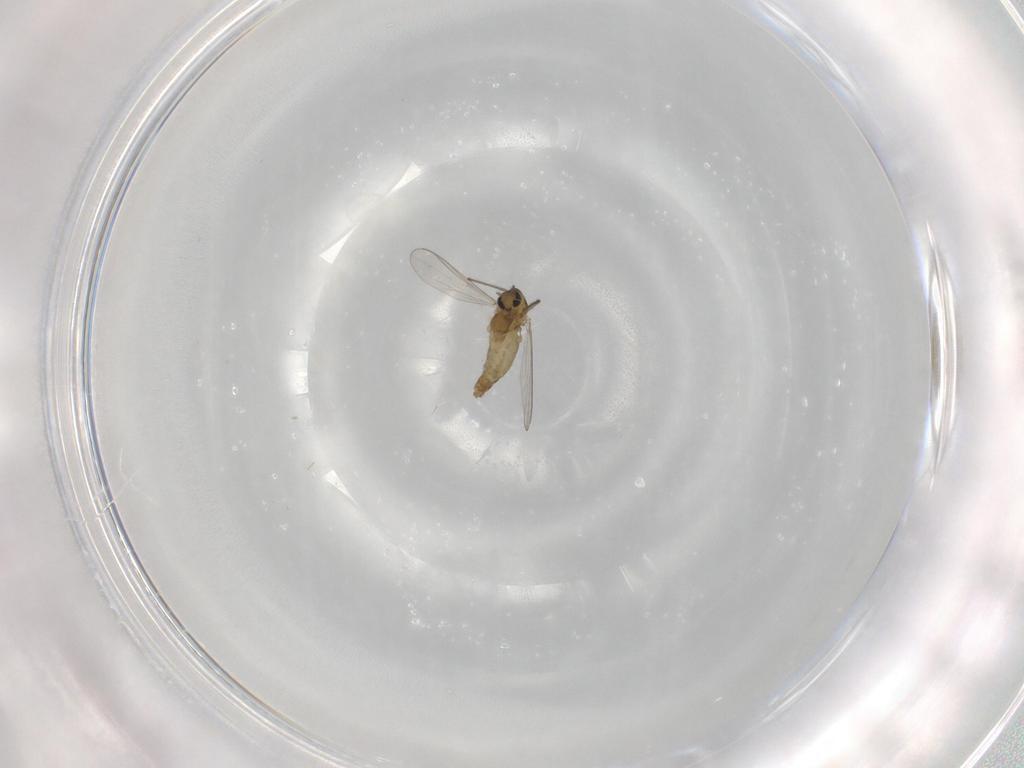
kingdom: Animalia
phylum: Arthropoda
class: Insecta
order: Diptera
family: Chironomidae
